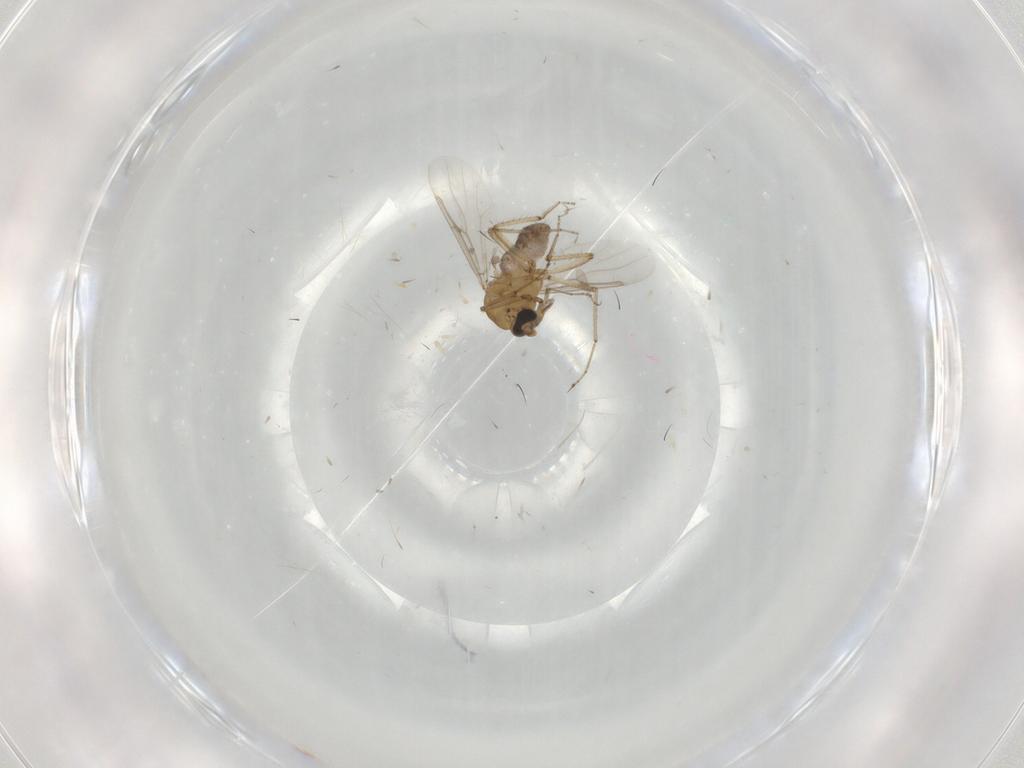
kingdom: Animalia
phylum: Arthropoda
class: Insecta
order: Diptera
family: Ceratopogonidae
